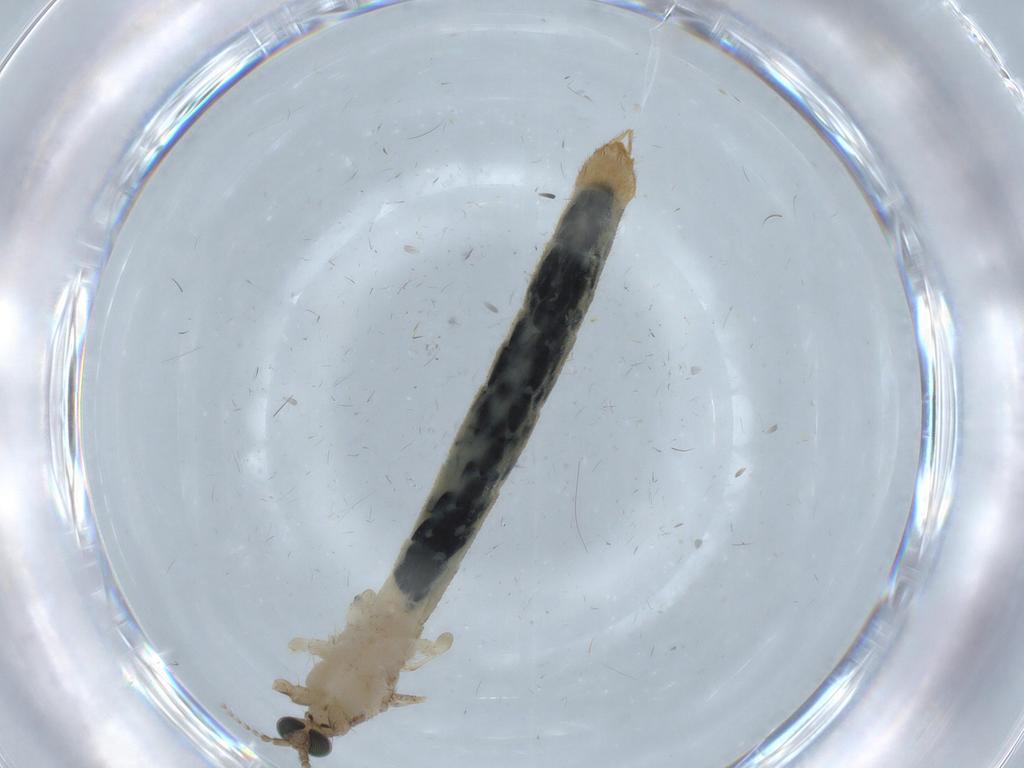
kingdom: Animalia
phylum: Arthropoda
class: Insecta
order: Diptera
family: Limoniidae
